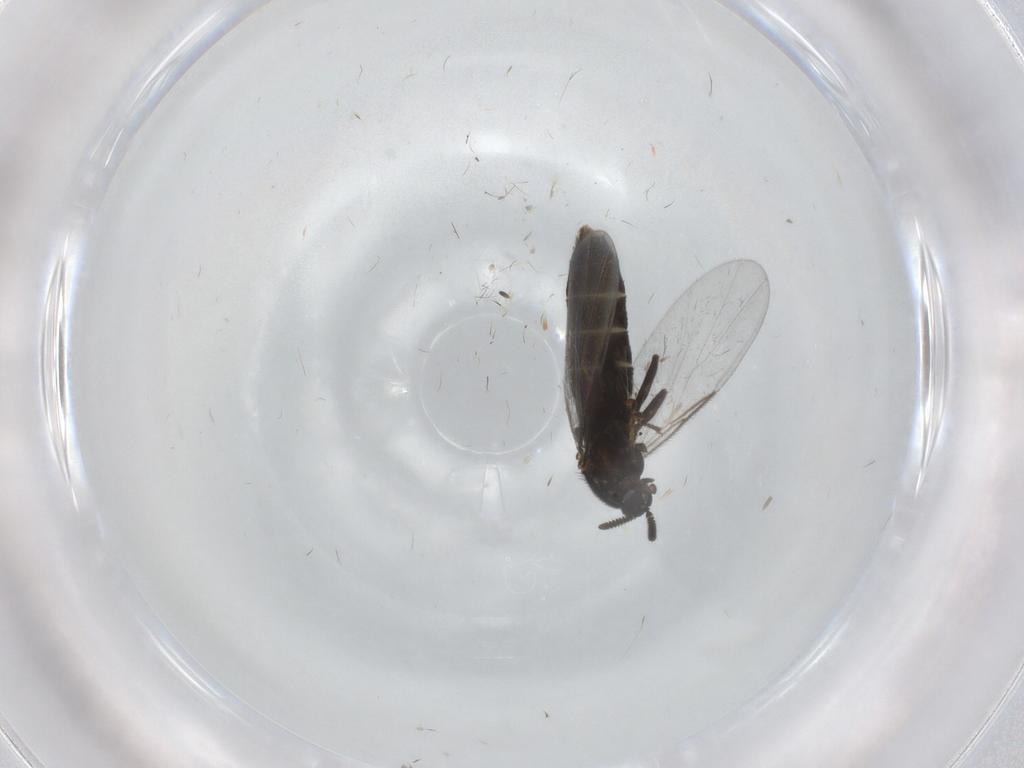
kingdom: Animalia
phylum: Arthropoda
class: Insecta
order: Diptera
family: Scatopsidae
